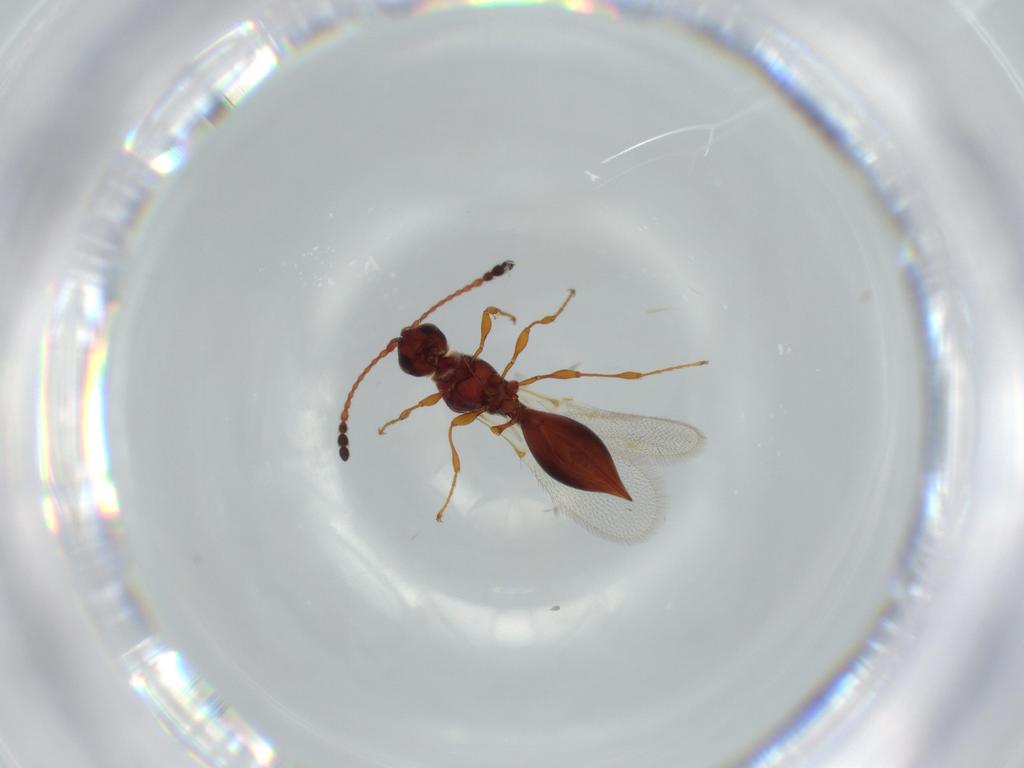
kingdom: Animalia
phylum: Arthropoda
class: Insecta
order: Hymenoptera
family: Diapriidae
